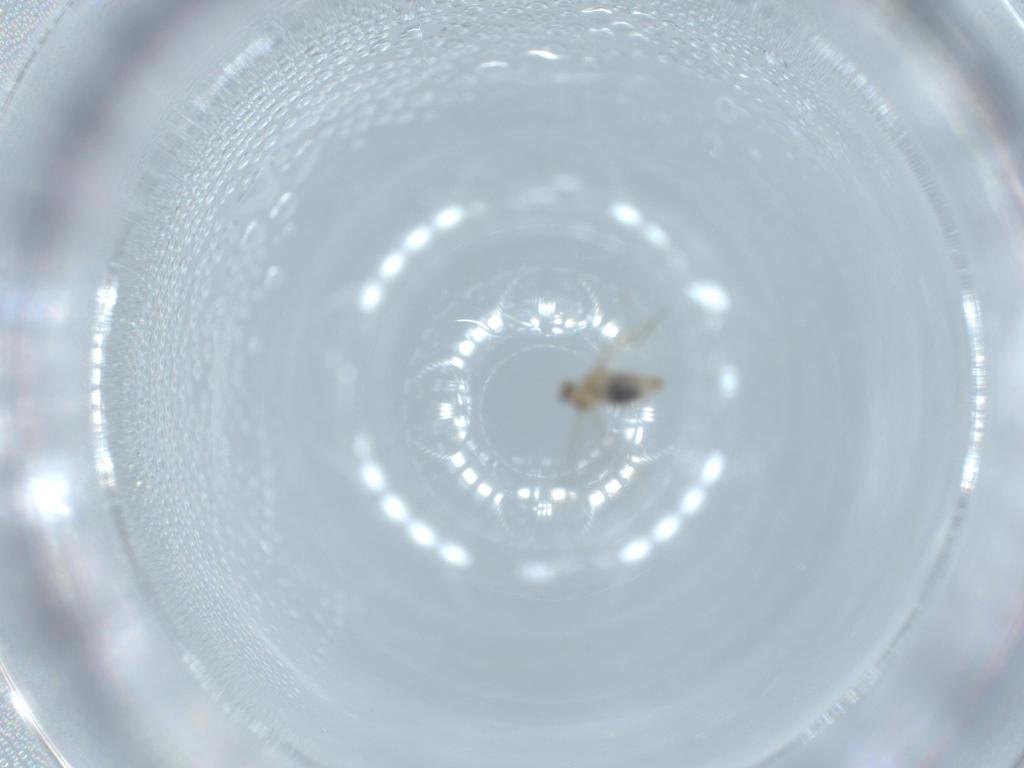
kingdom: Animalia
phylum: Arthropoda
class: Insecta
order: Diptera
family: Cecidomyiidae
